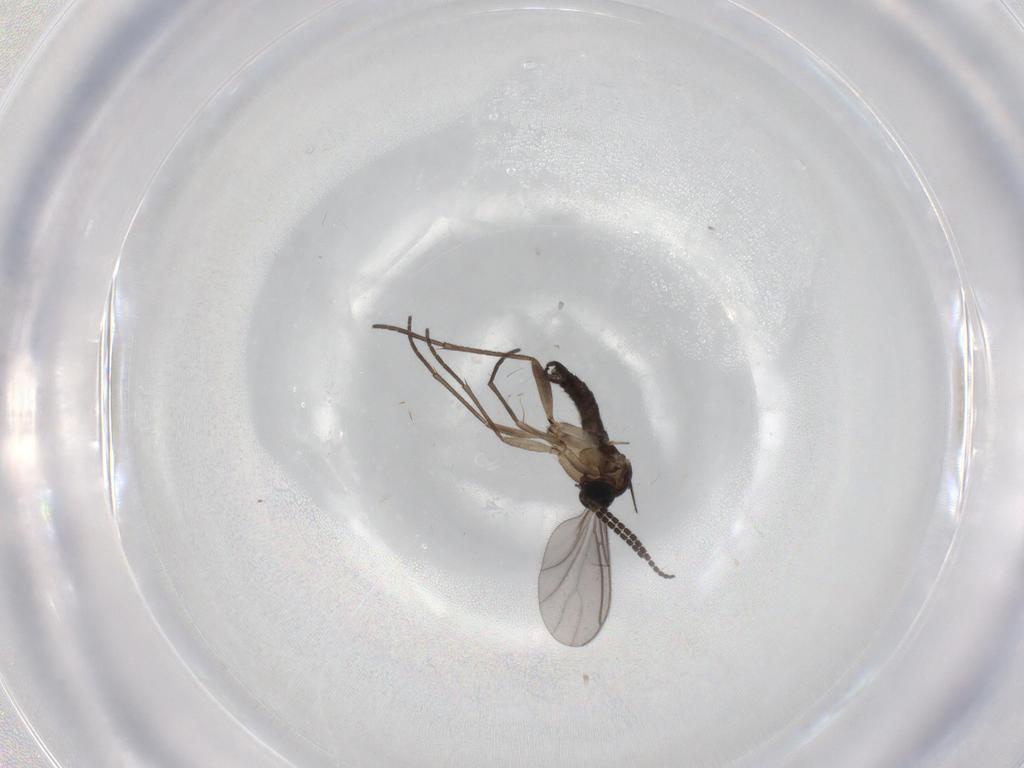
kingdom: Animalia
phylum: Arthropoda
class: Insecta
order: Diptera
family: Sciaridae
